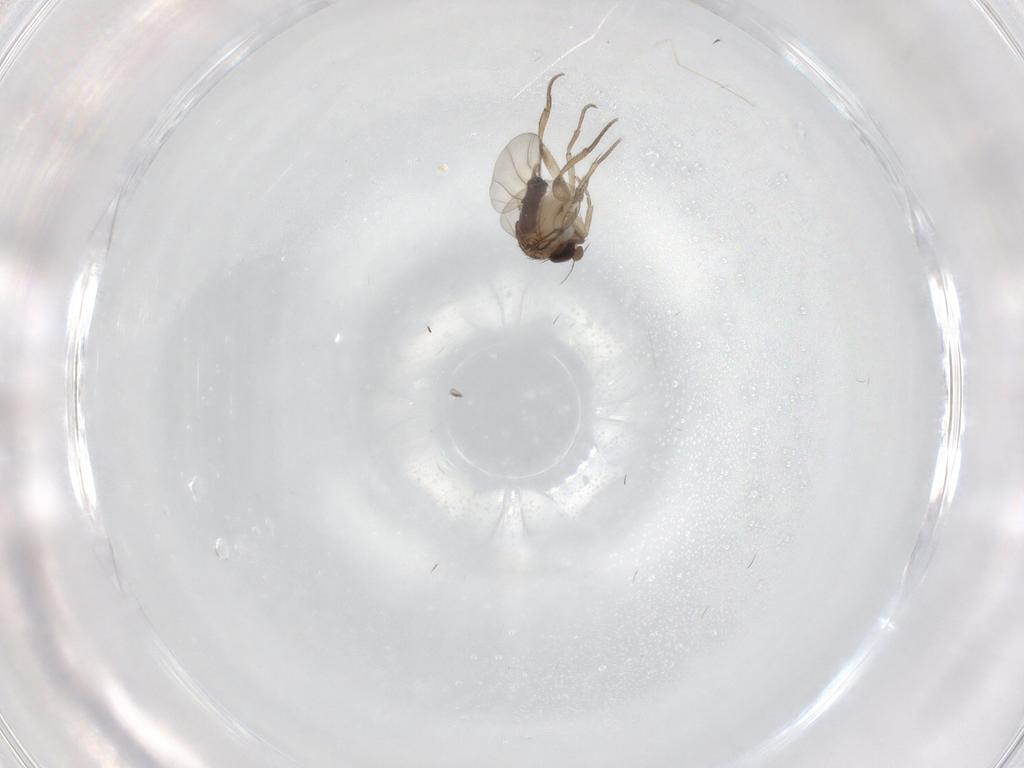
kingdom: Animalia
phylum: Arthropoda
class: Insecta
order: Diptera
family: Phoridae
